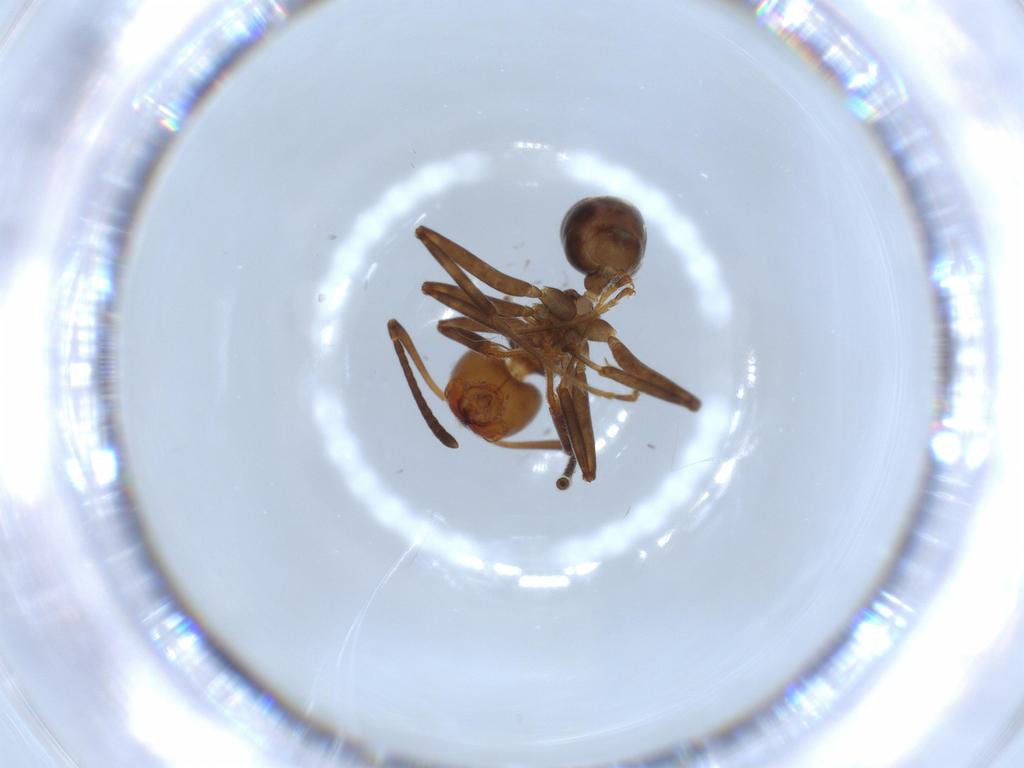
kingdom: Animalia
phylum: Arthropoda
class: Insecta
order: Hymenoptera
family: Formicidae
